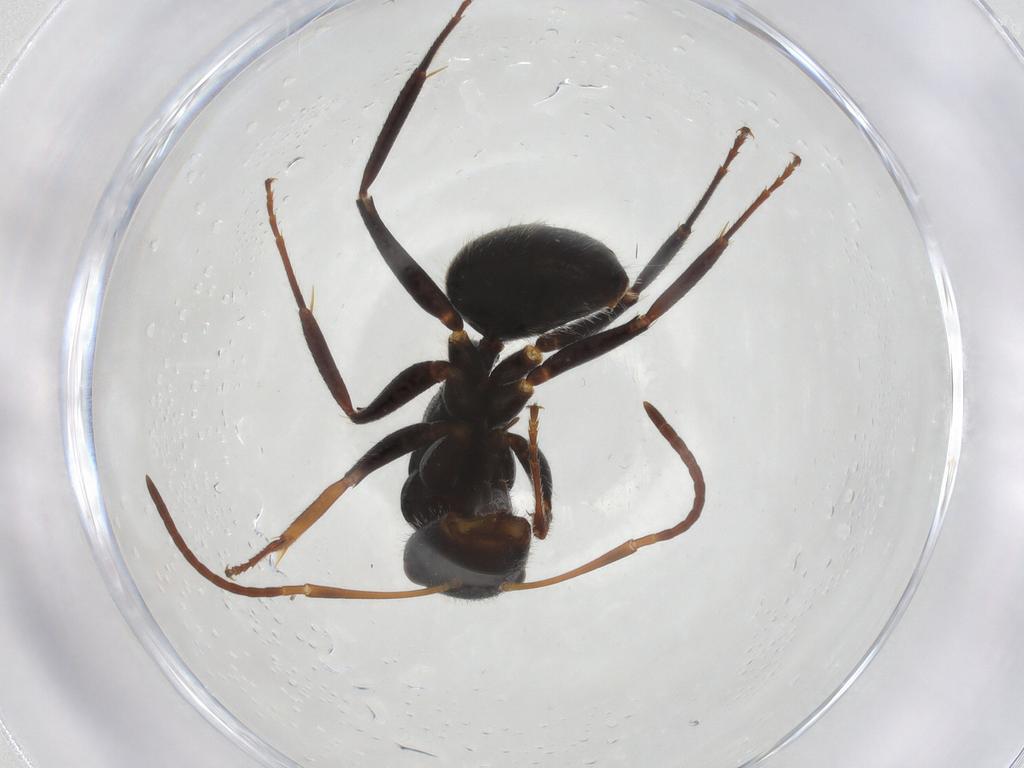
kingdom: Animalia
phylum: Arthropoda
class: Insecta
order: Hymenoptera
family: Formicidae
